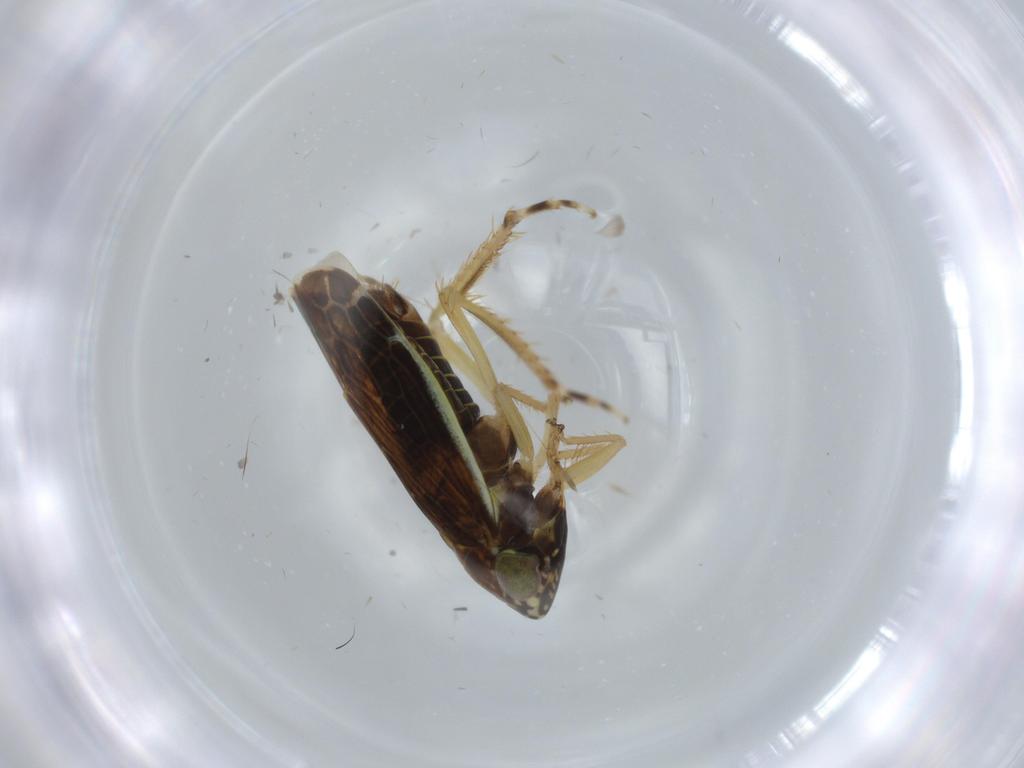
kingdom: Animalia
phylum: Arthropoda
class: Insecta
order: Hemiptera
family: Cicadellidae
